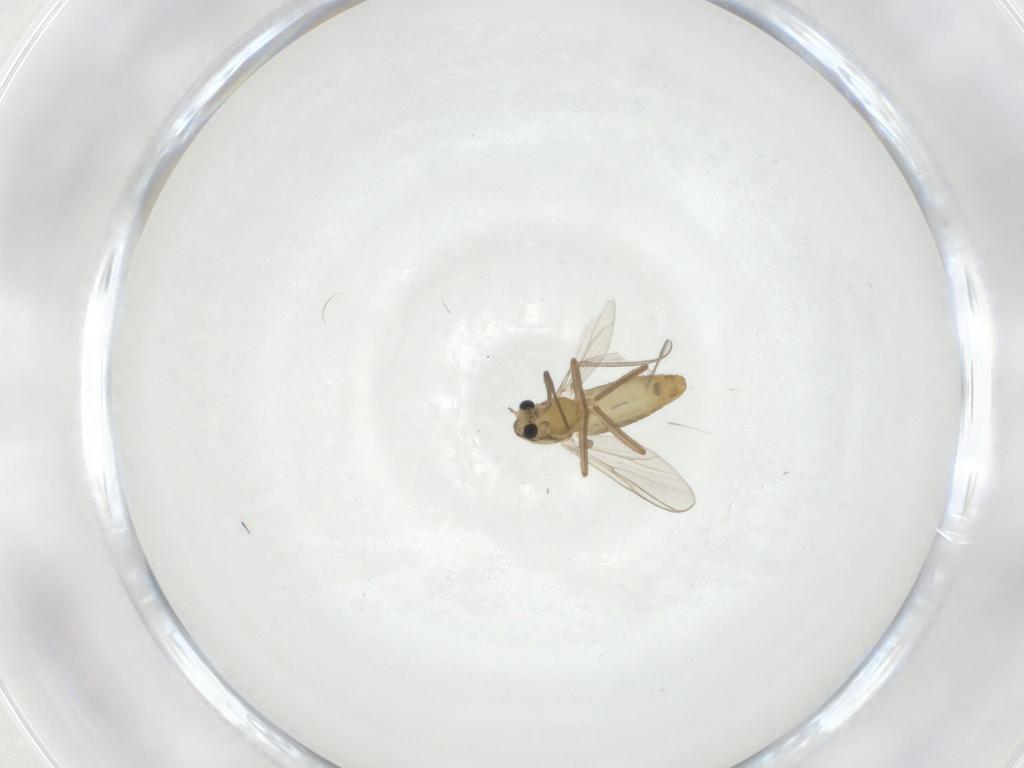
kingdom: Animalia
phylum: Arthropoda
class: Insecta
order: Diptera
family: Chironomidae
